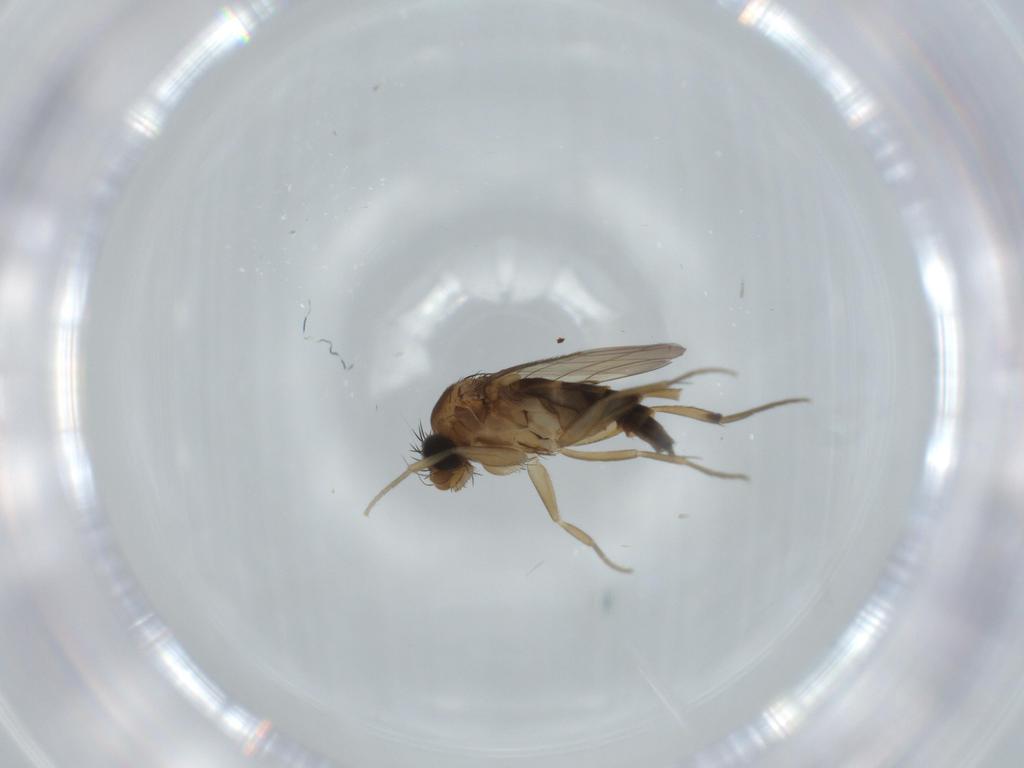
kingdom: Animalia
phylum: Arthropoda
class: Insecta
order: Diptera
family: Phoridae
